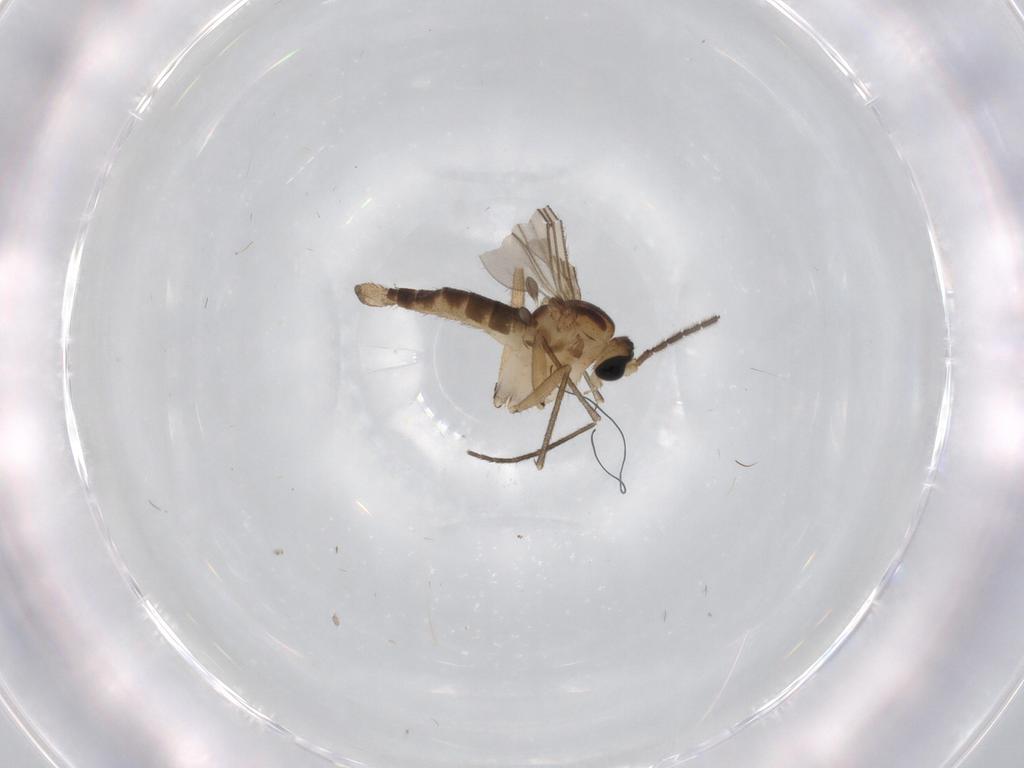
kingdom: Animalia
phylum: Arthropoda
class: Insecta
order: Diptera
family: Sciaridae
